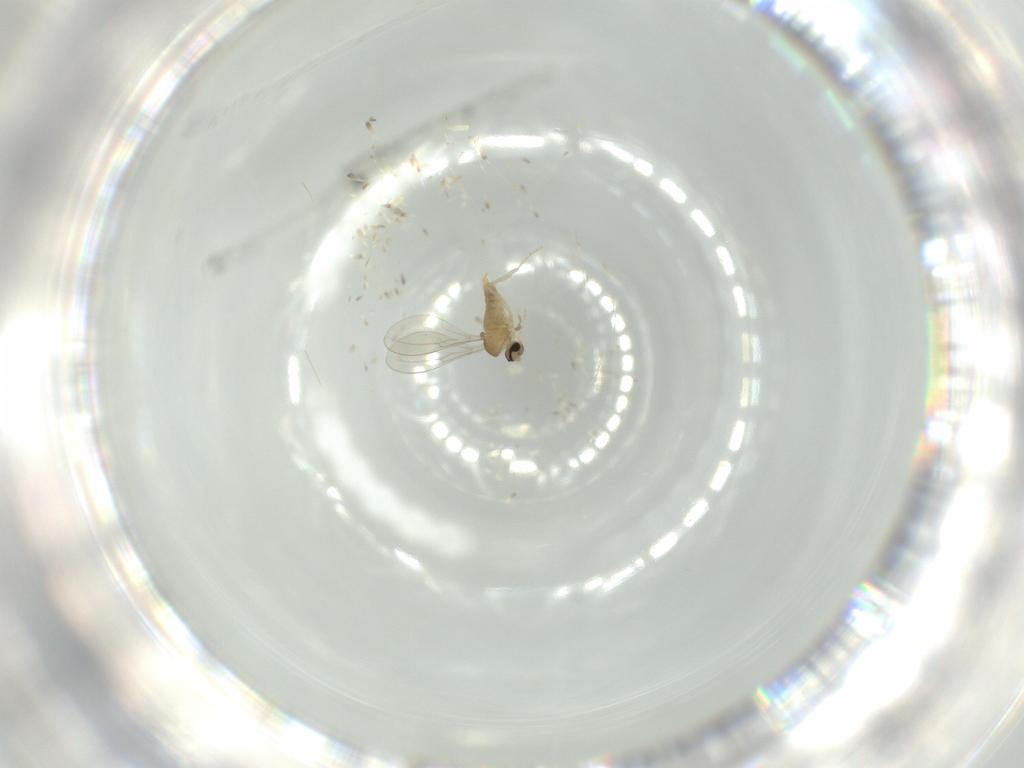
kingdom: Animalia
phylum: Arthropoda
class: Insecta
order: Diptera
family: Cecidomyiidae
